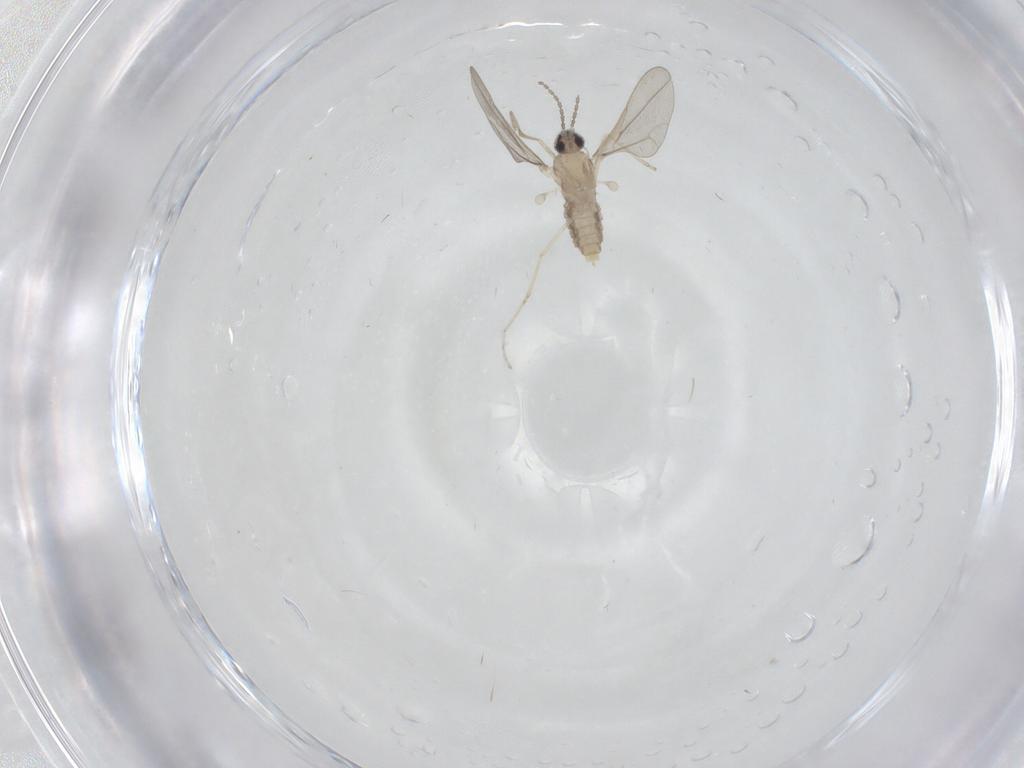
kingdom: Animalia
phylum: Arthropoda
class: Insecta
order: Diptera
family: Cecidomyiidae
